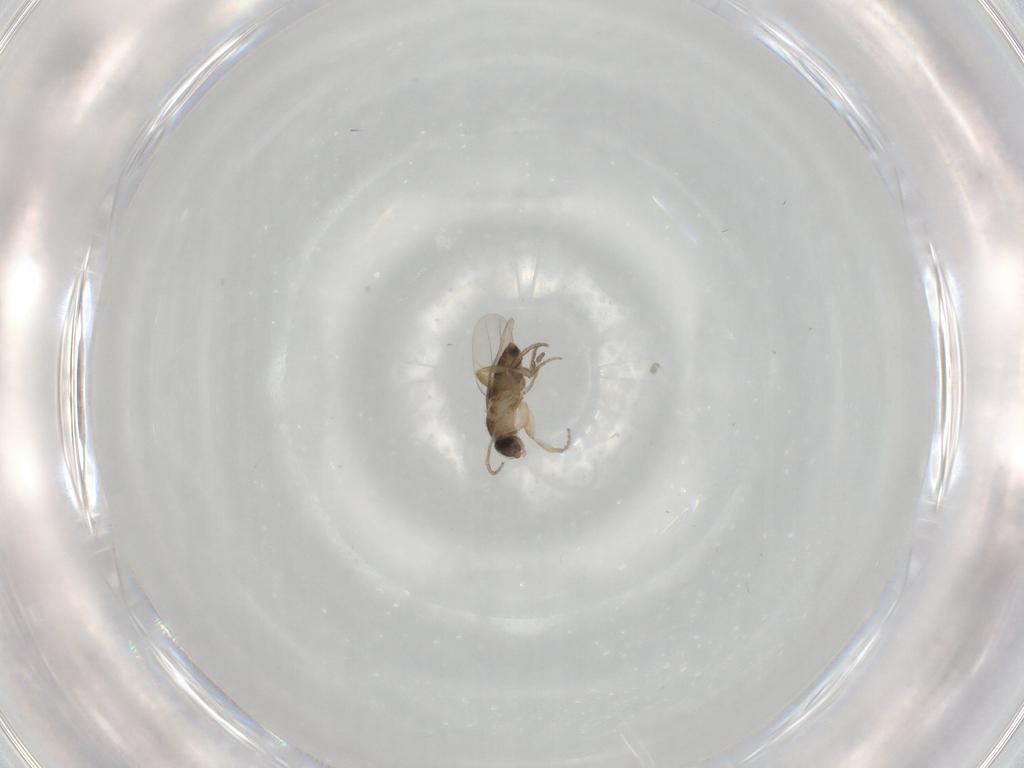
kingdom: Animalia
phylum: Arthropoda
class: Insecta
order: Diptera
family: Phoridae
